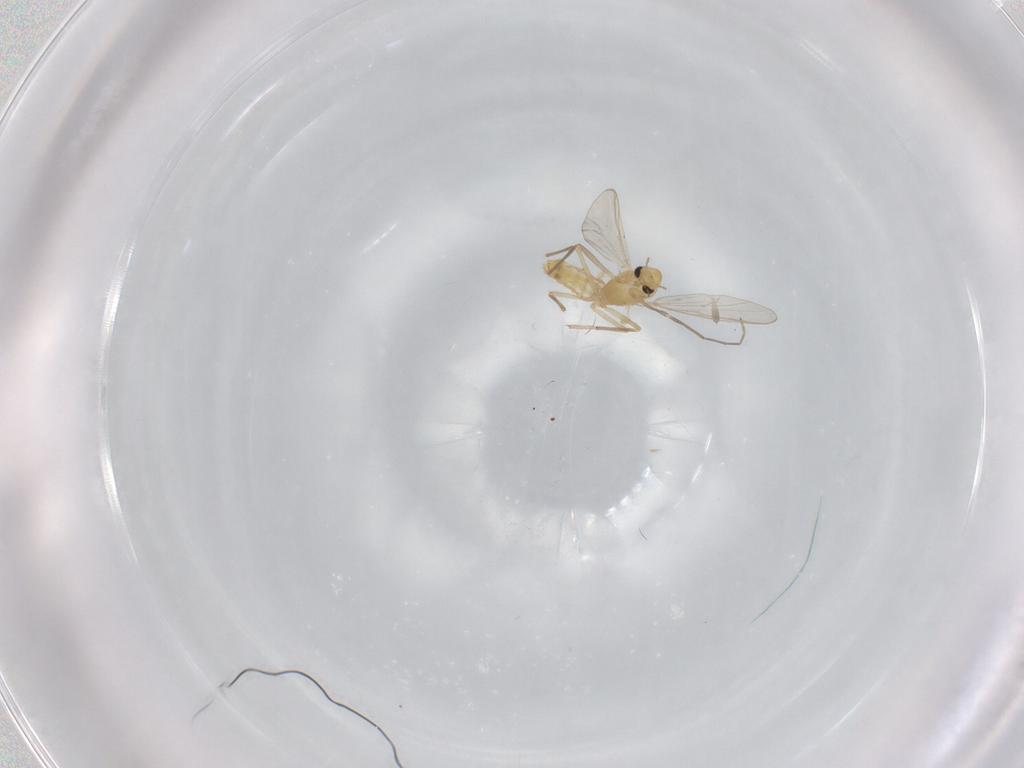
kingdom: Animalia
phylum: Arthropoda
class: Insecta
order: Diptera
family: Chironomidae
